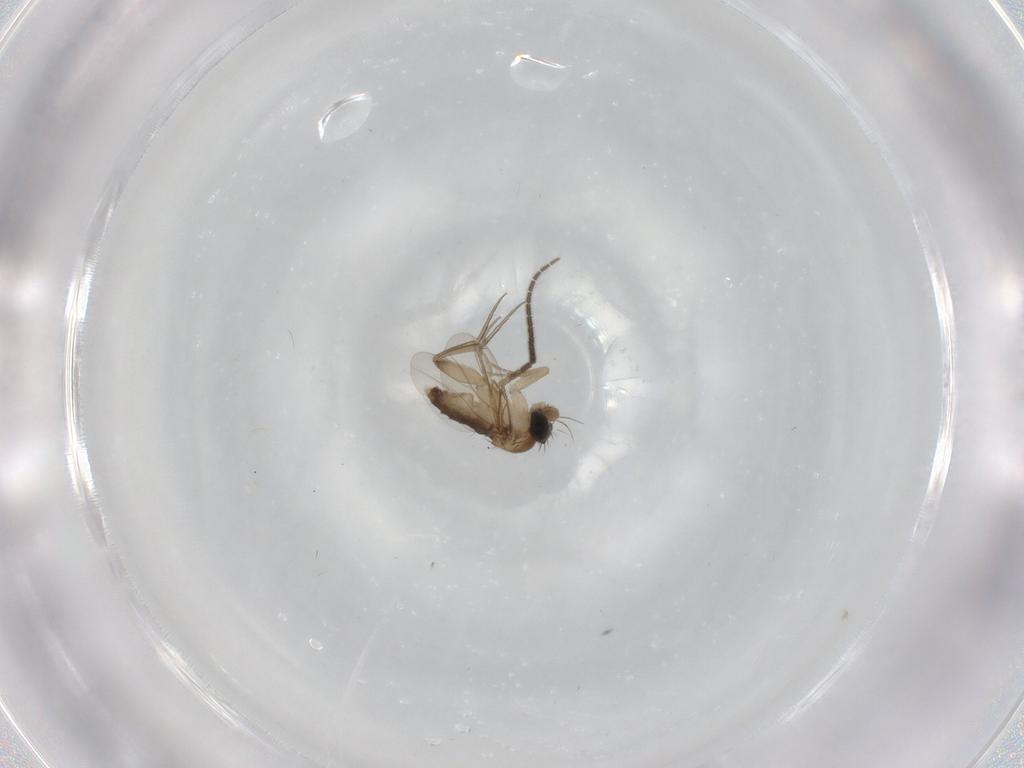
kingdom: Animalia
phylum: Arthropoda
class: Insecta
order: Diptera
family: Phoridae
